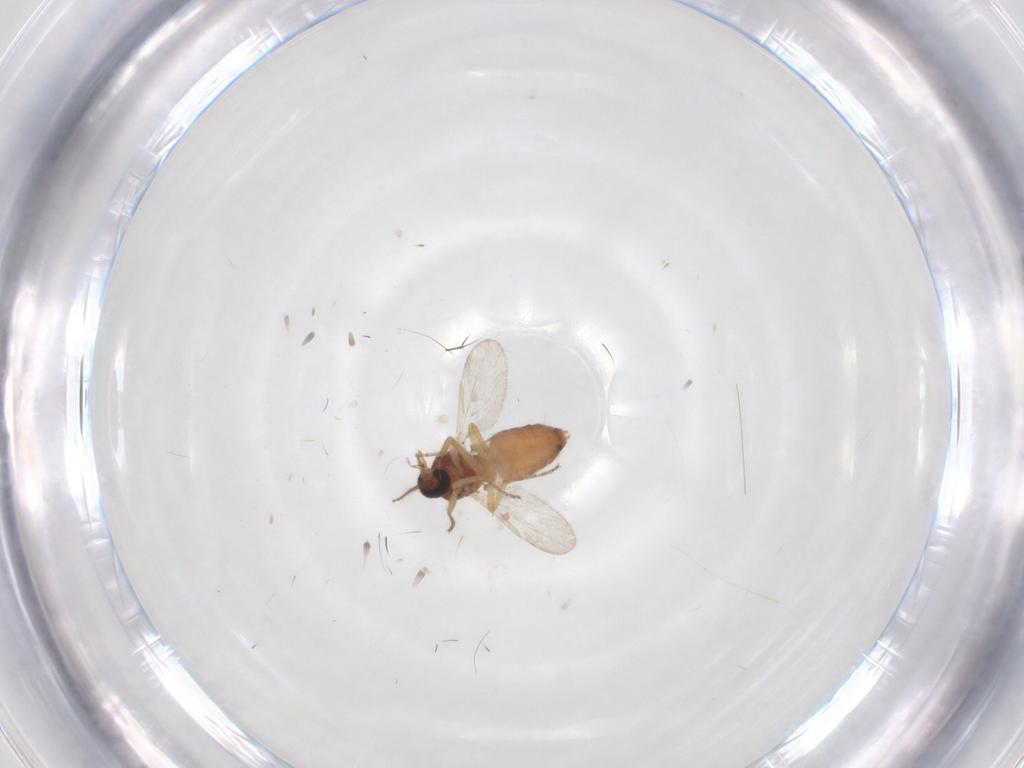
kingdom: Animalia
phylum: Arthropoda
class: Insecta
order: Diptera
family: Ceratopogonidae
